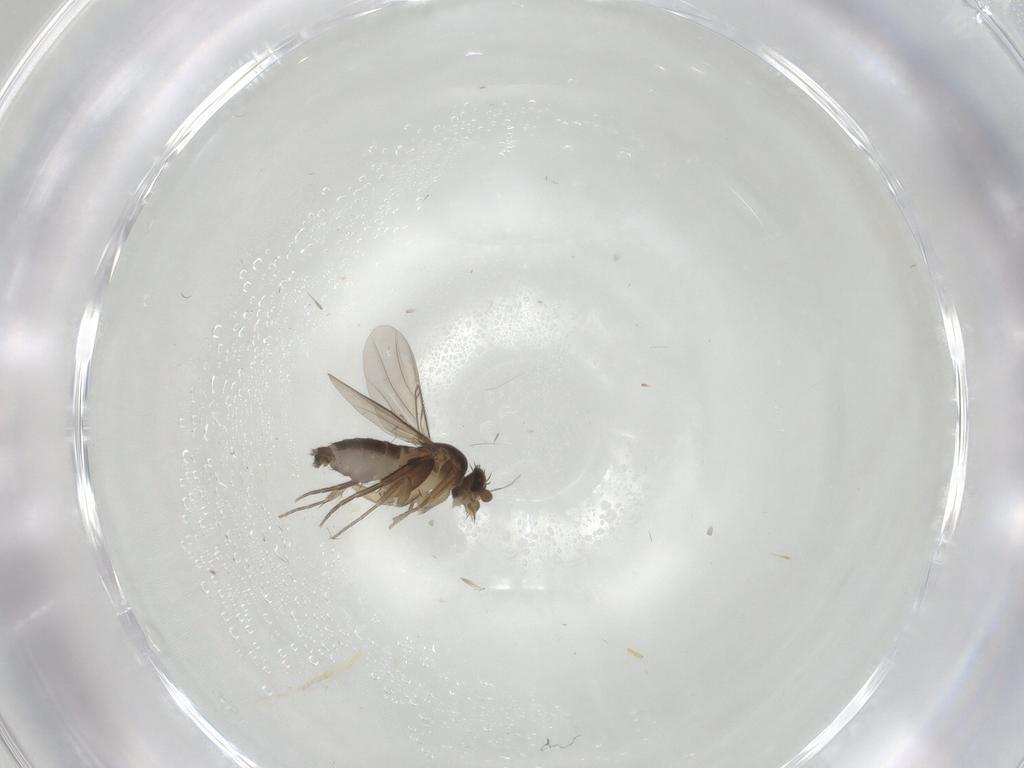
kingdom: Animalia
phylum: Arthropoda
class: Insecta
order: Diptera
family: Phoridae
